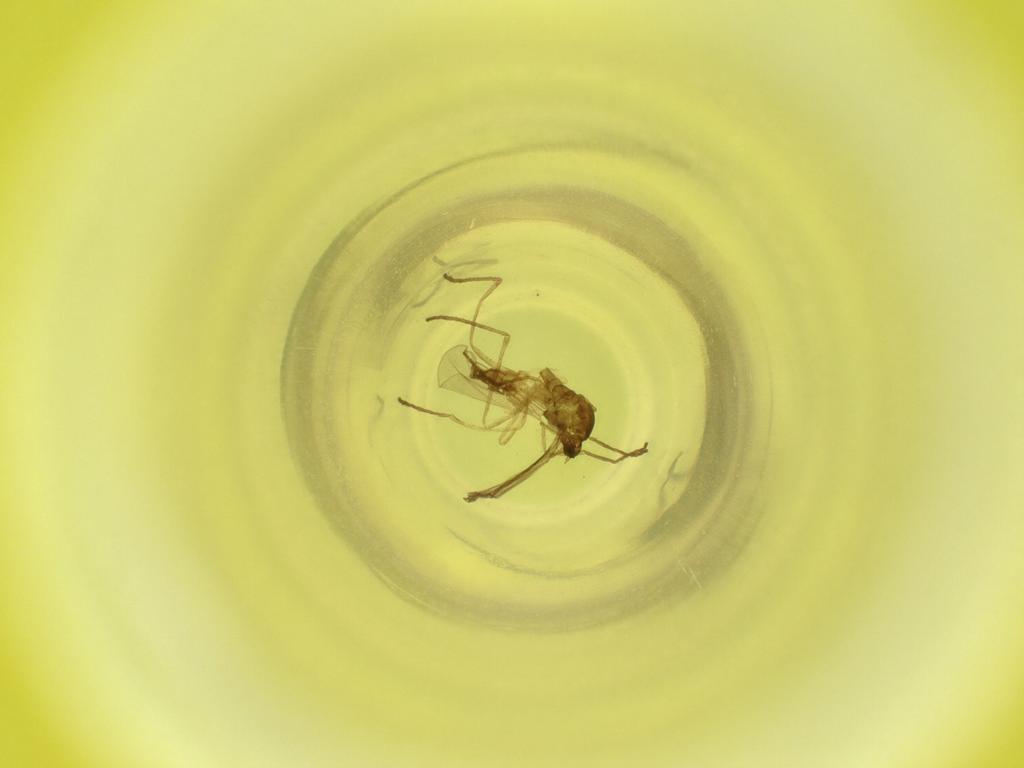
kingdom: Animalia
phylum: Arthropoda
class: Insecta
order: Diptera
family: Cecidomyiidae
